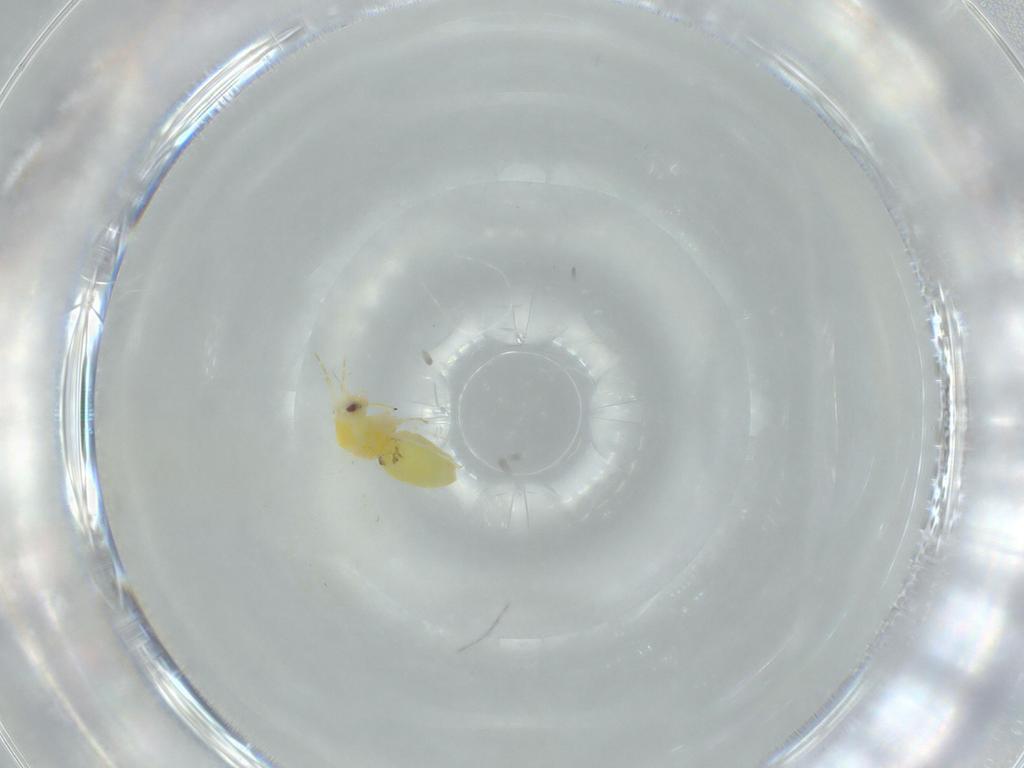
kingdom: Animalia
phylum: Arthropoda
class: Insecta
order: Hemiptera
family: Aleyrodidae
